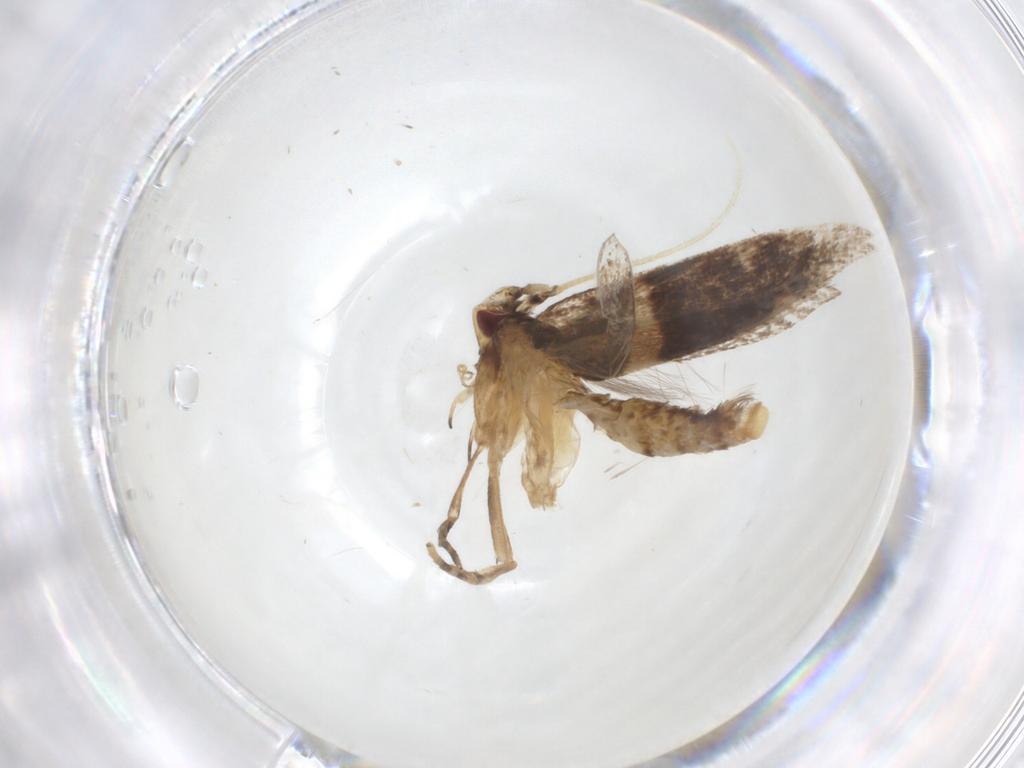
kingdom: Animalia
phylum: Arthropoda
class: Insecta
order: Lepidoptera
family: Cosmopterigidae
